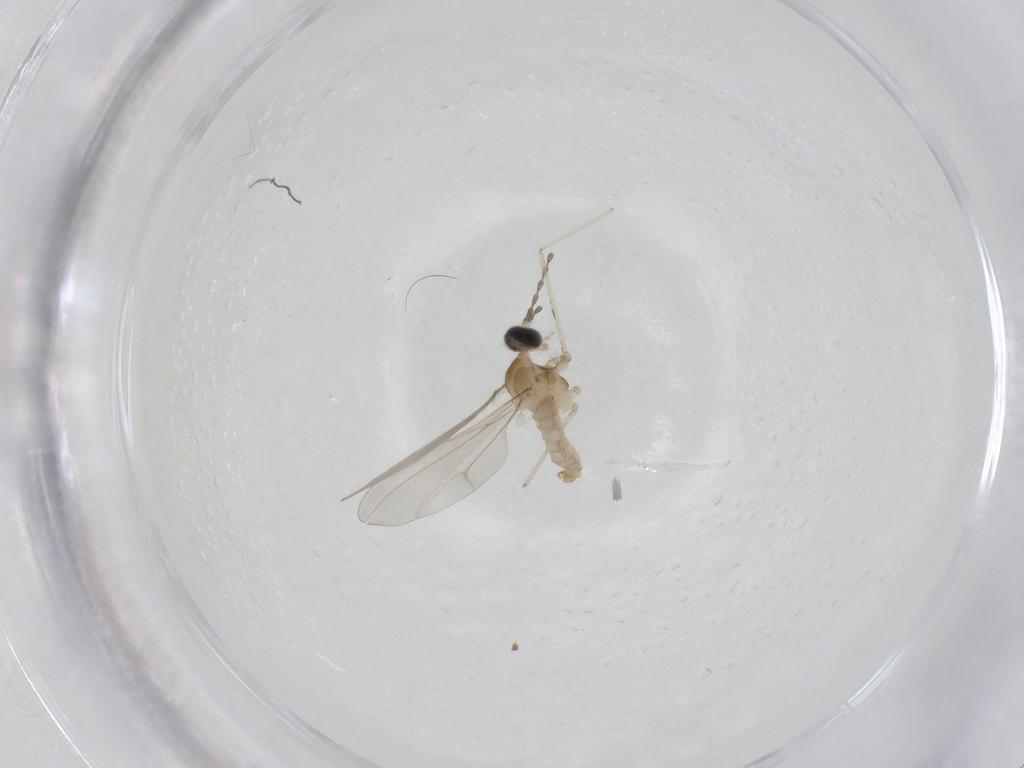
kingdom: Animalia
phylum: Arthropoda
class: Insecta
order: Diptera
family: Cecidomyiidae
